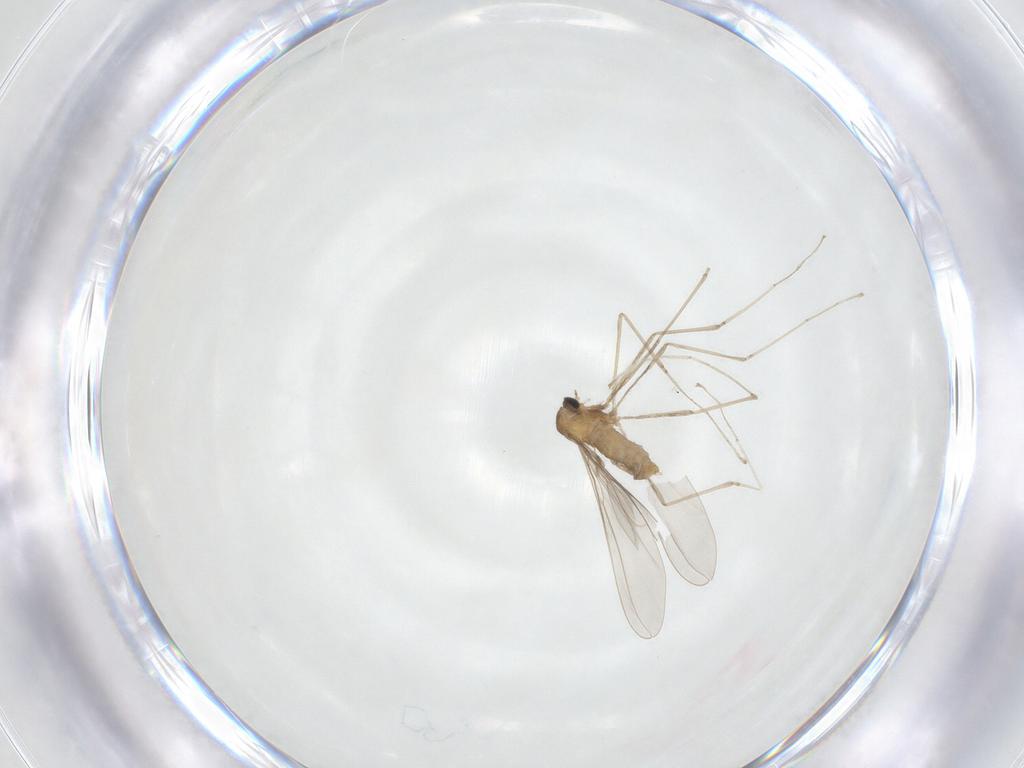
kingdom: Animalia
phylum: Arthropoda
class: Insecta
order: Diptera
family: Cecidomyiidae
